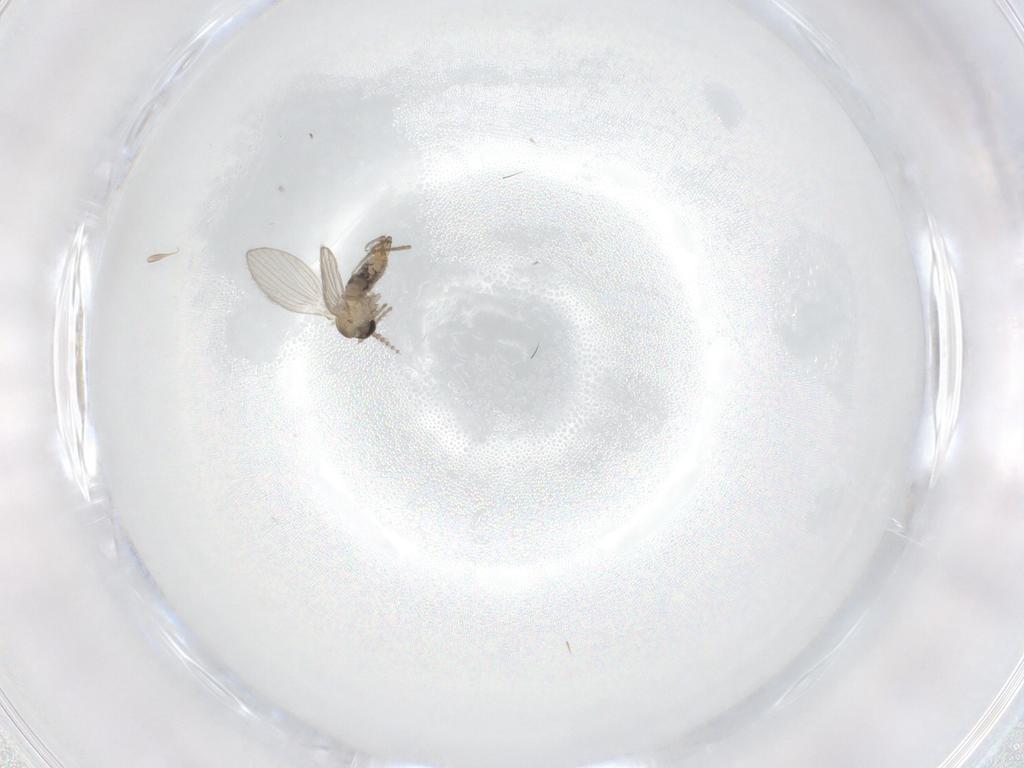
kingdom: Animalia
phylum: Arthropoda
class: Insecta
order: Diptera
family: Psychodidae
